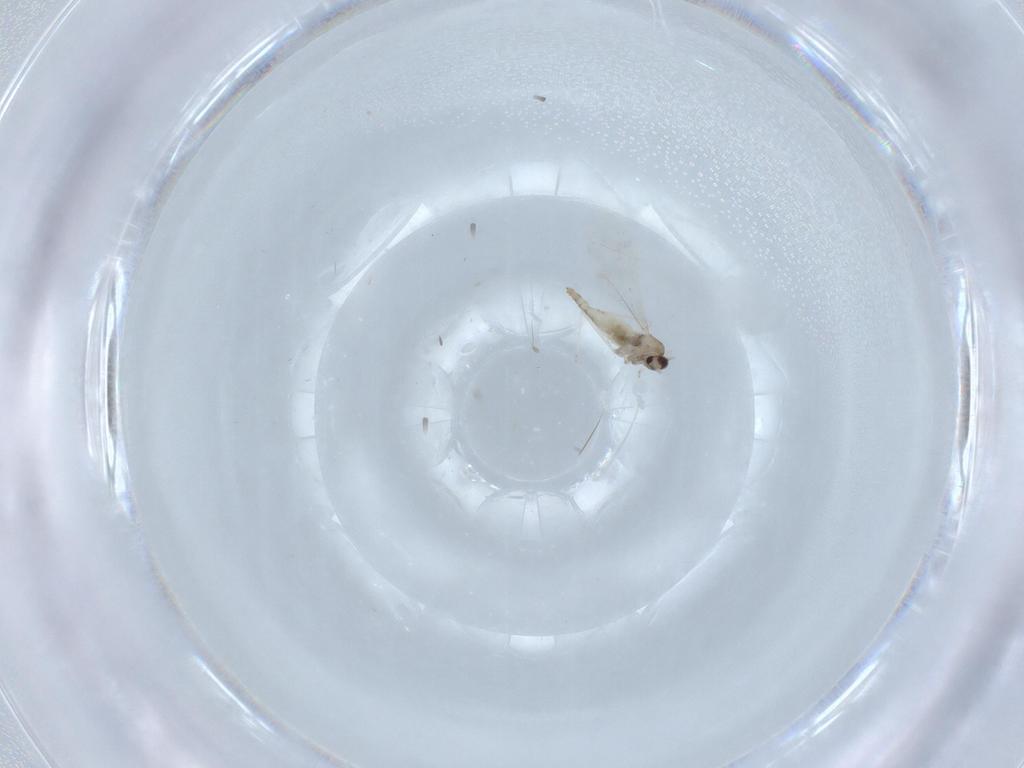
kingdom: Animalia
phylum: Arthropoda
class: Insecta
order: Diptera
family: Cecidomyiidae
